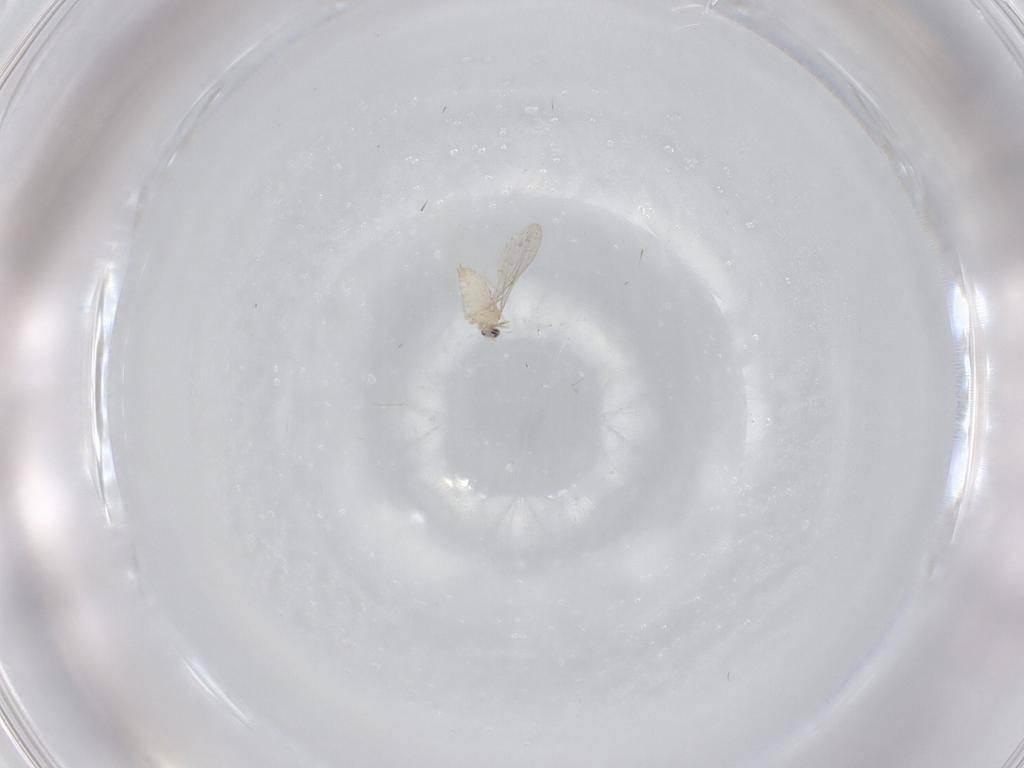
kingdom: Animalia
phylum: Arthropoda
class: Insecta
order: Diptera
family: Cecidomyiidae
